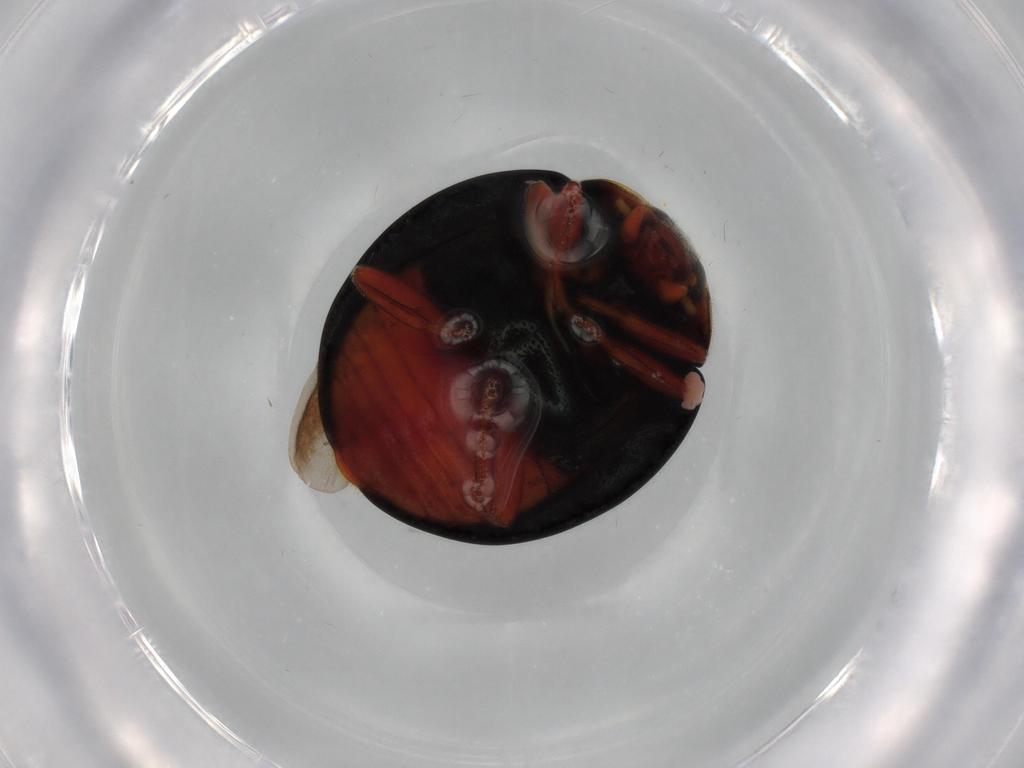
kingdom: Animalia
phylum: Arthropoda
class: Insecta
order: Coleoptera
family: Coccinellidae
